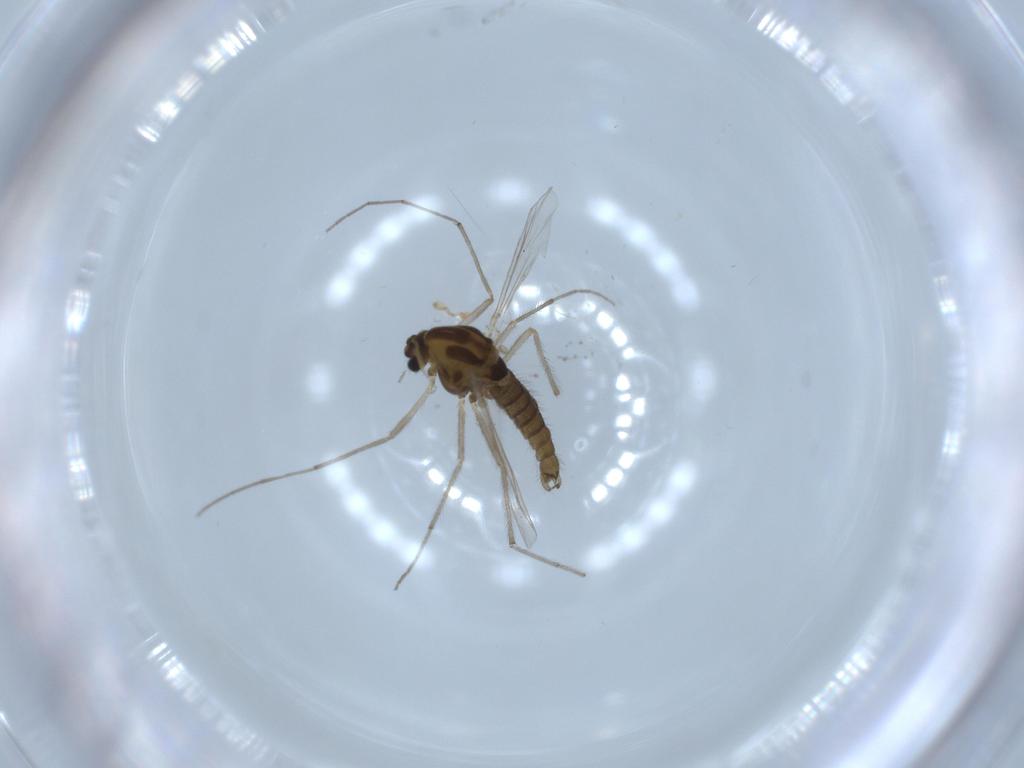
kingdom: Animalia
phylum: Arthropoda
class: Insecta
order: Diptera
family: Chironomidae
